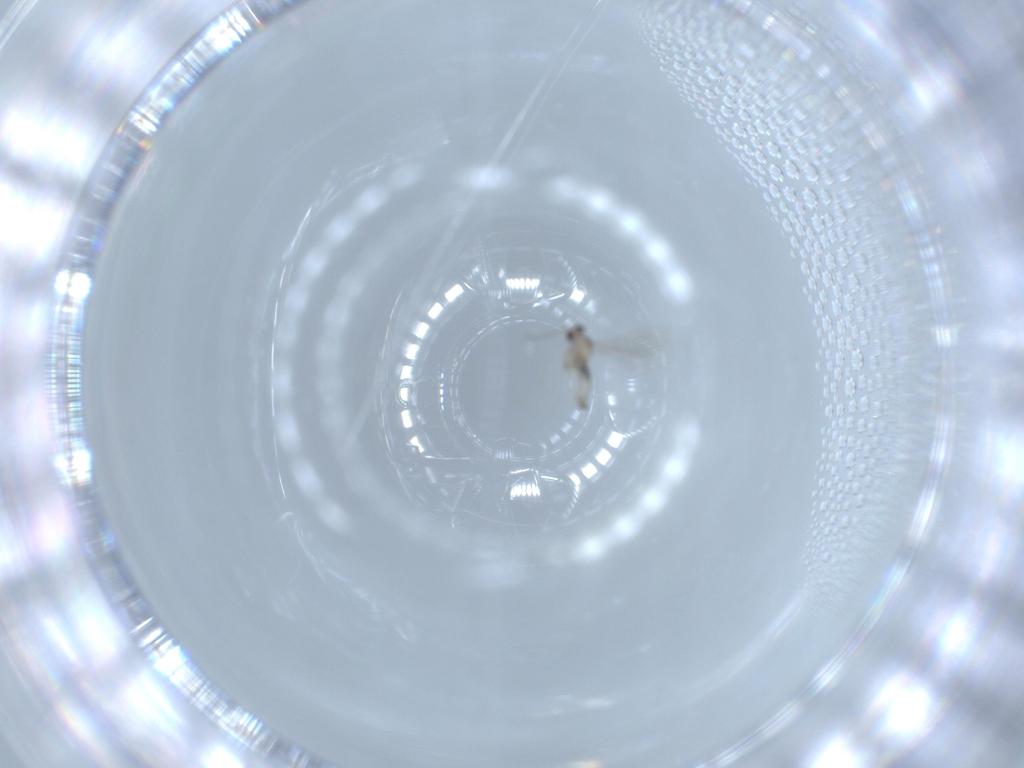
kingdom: Animalia
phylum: Arthropoda
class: Insecta
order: Diptera
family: Cecidomyiidae
